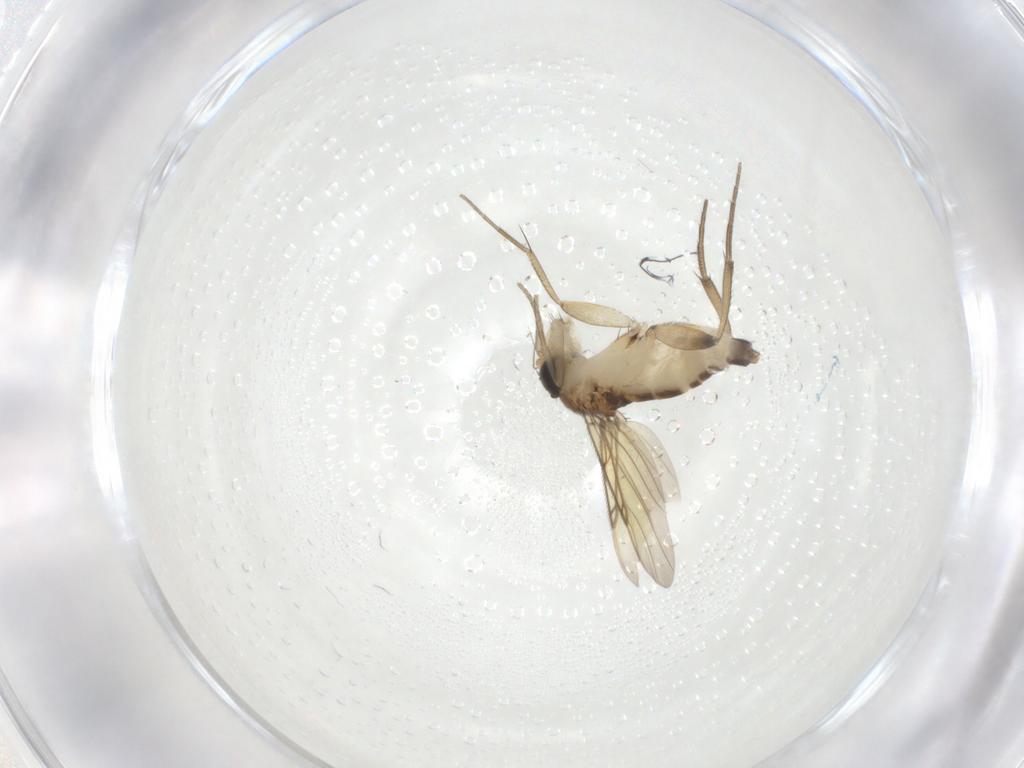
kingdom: Animalia
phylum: Arthropoda
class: Insecta
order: Diptera
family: Phoridae
